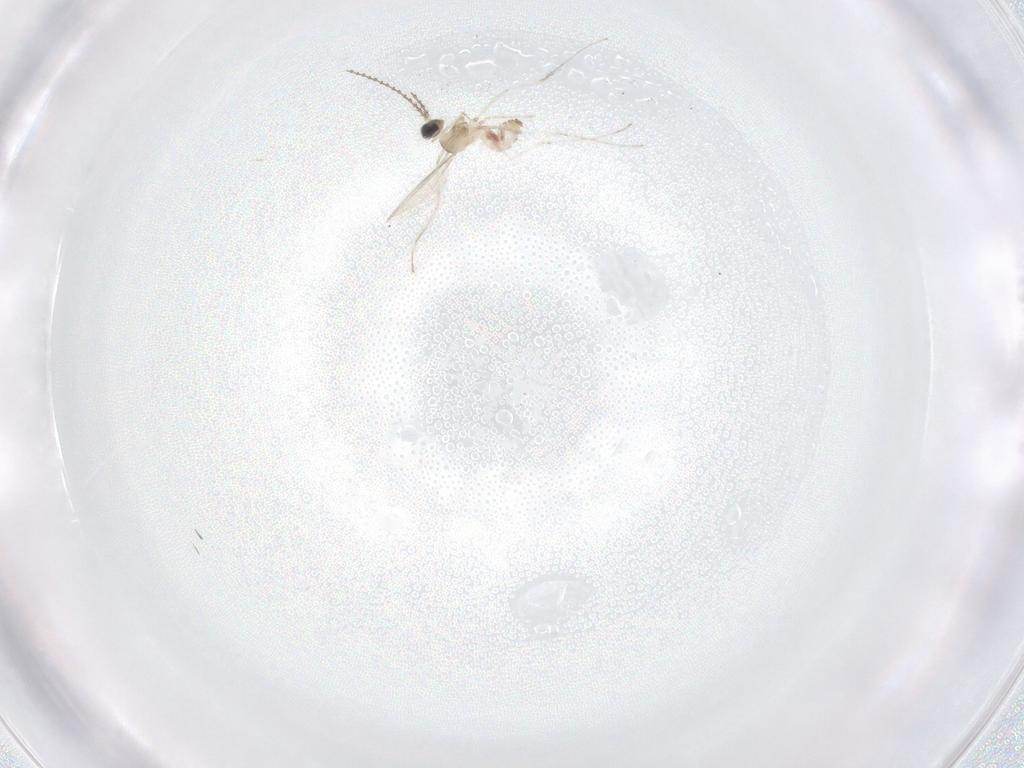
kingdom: Animalia
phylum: Arthropoda
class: Insecta
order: Diptera
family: Cecidomyiidae
